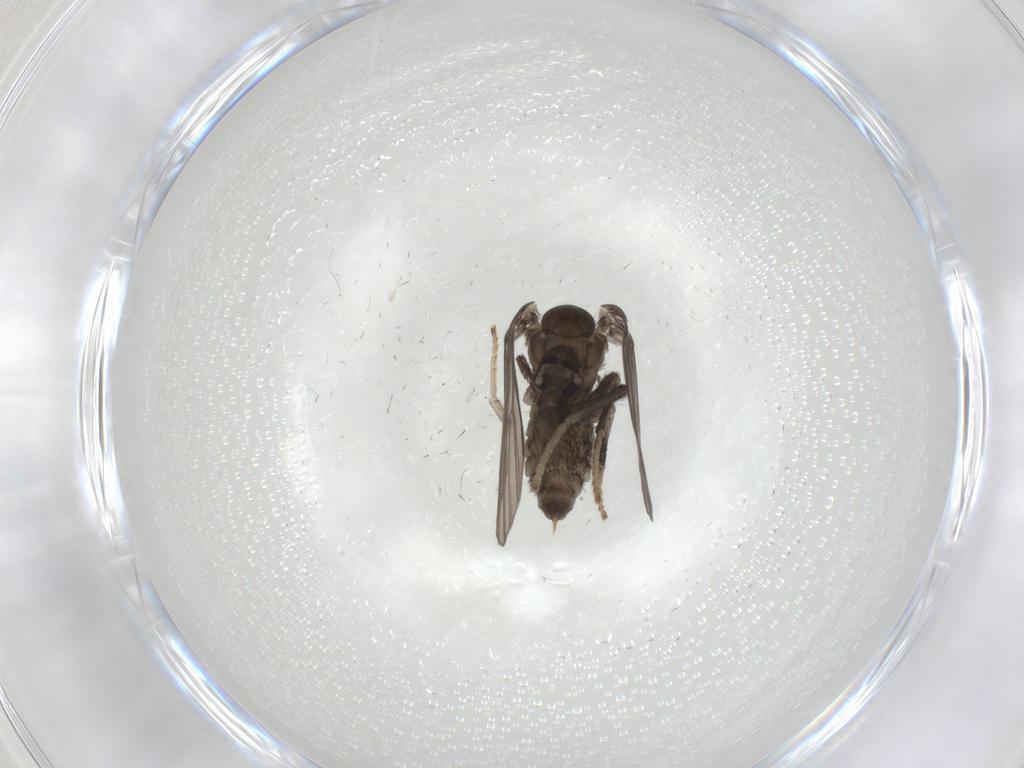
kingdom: Animalia
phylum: Arthropoda
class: Insecta
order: Diptera
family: Psychodidae
